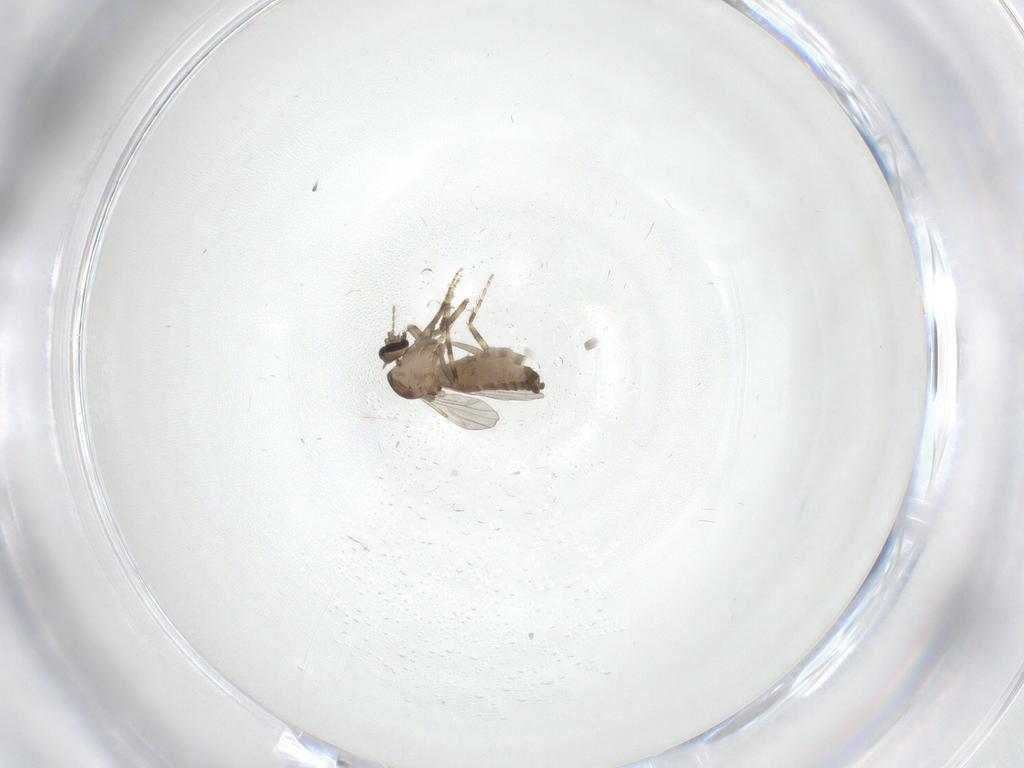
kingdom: Animalia
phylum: Arthropoda
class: Insecta
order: Diptera
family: Ceratopogonidae
